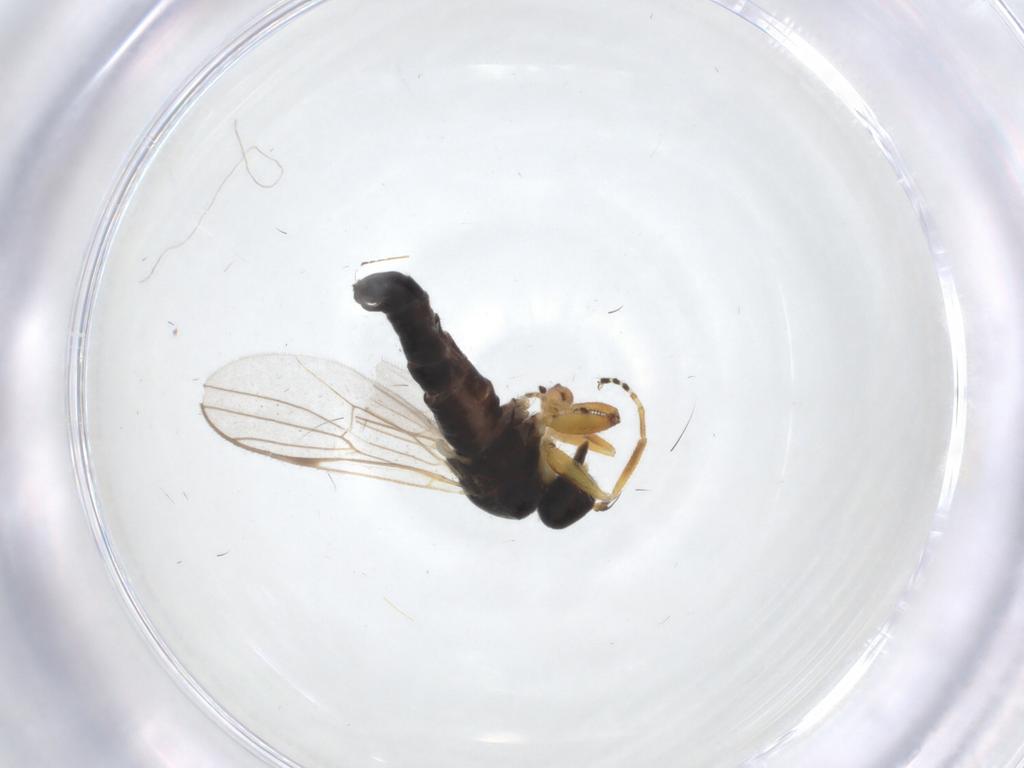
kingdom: Animalia
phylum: Arthropoda
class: Insecta
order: Diptera
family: Hybotidae
